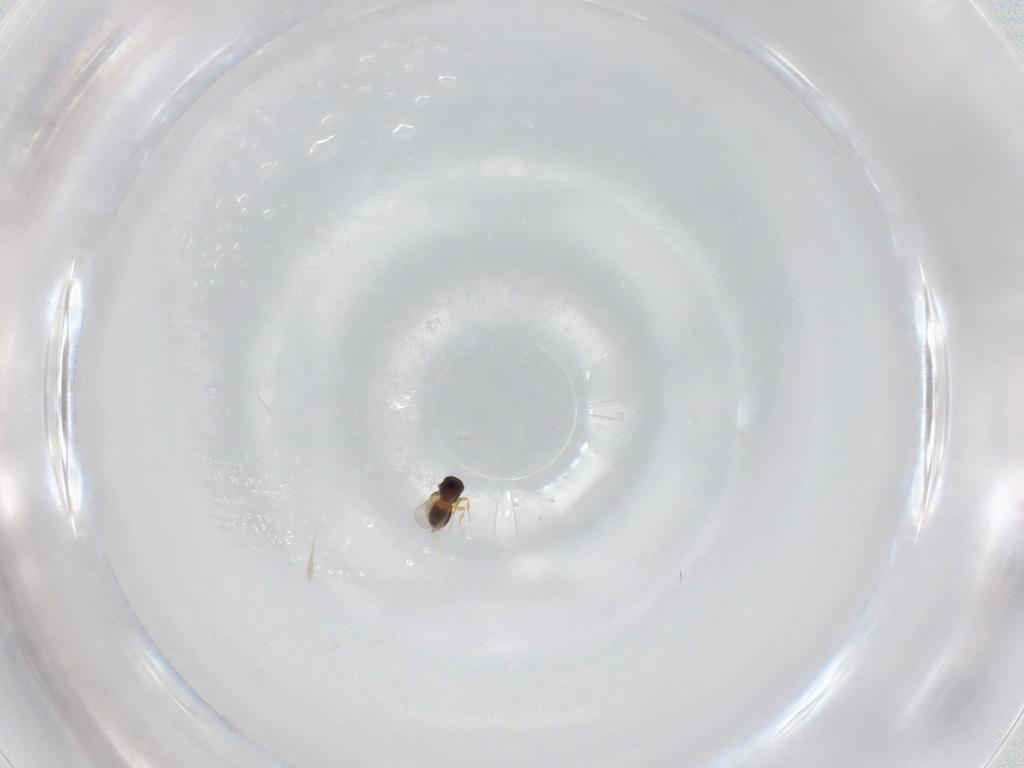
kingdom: Animalia
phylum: Arthropoda
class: Insecta
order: Hymenoptera
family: Platygastridae
